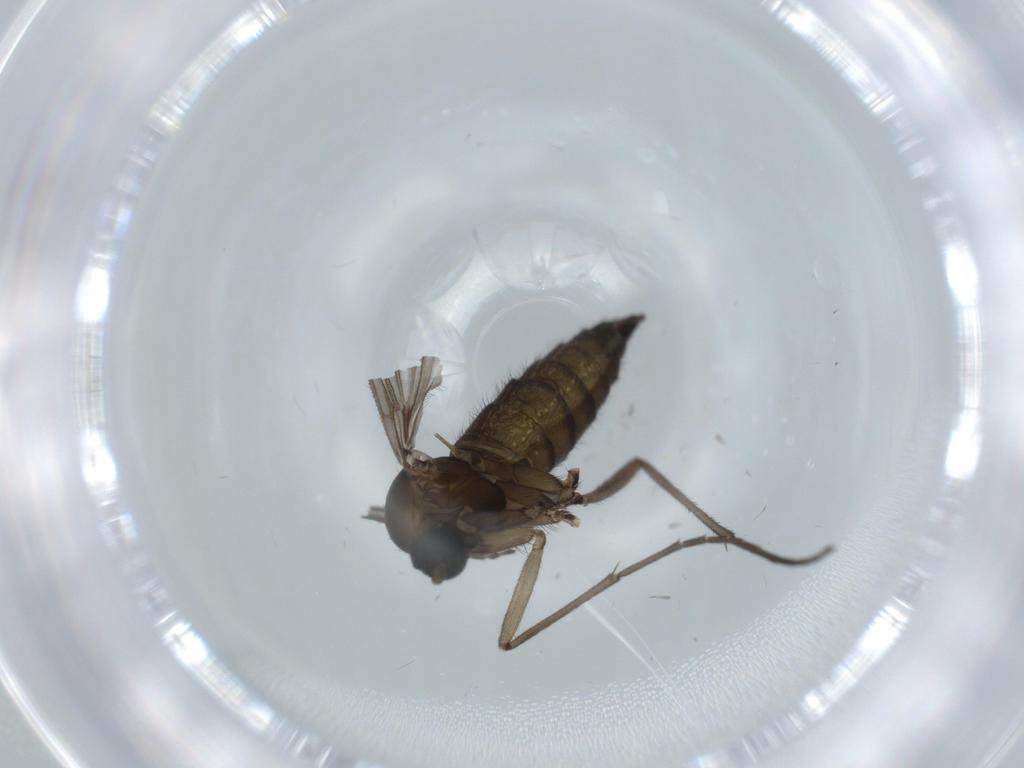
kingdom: Animalia
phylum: Arthropoda
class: Insecta
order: Diptera
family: Sciaridae
